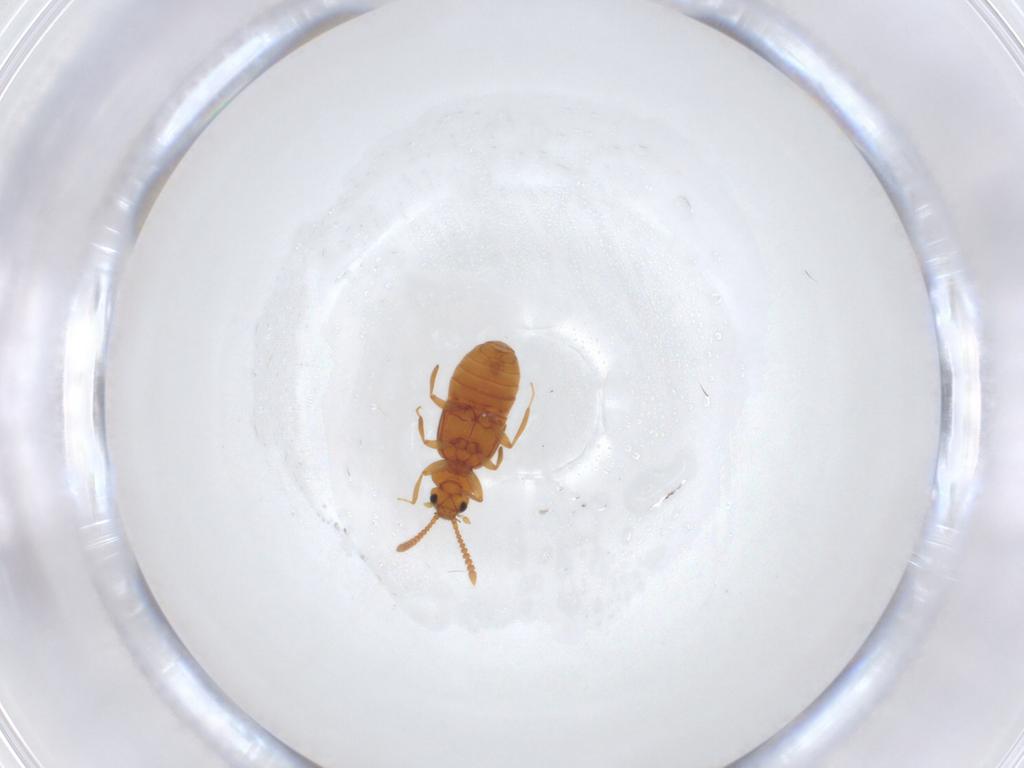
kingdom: Animalia
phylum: Arthropoda
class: Insecta
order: Coleoptera
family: Staphylinidae
